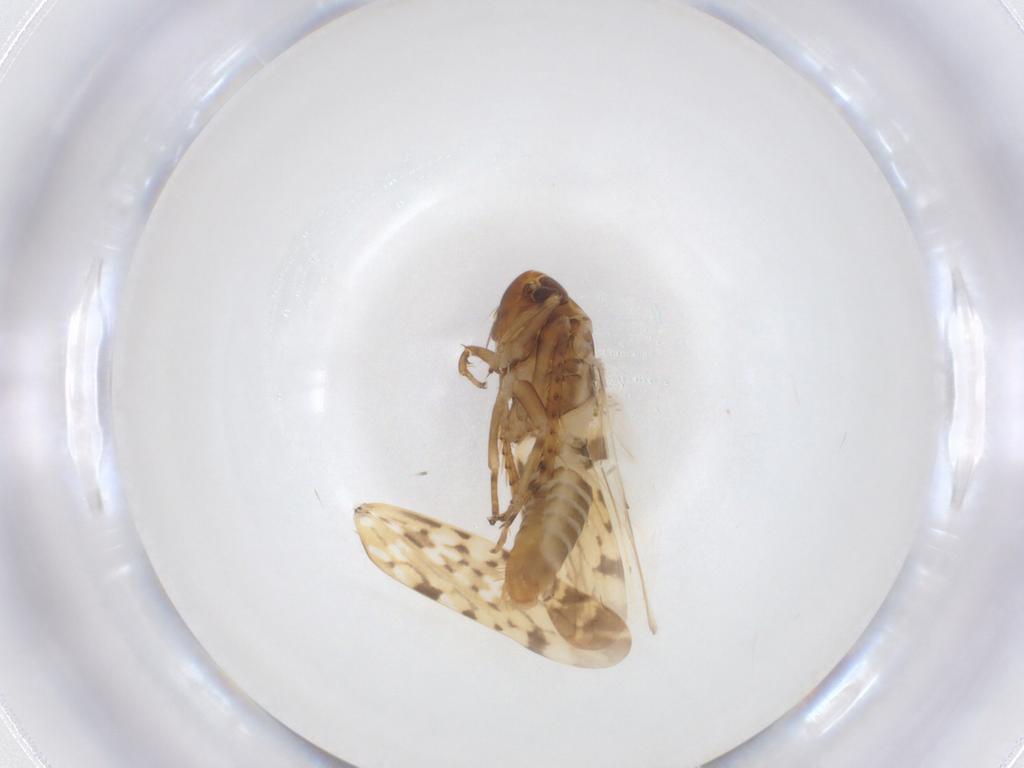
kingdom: Animalia
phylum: Arthropoda
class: Insecta
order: Hemiptera
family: Cicadellidae
